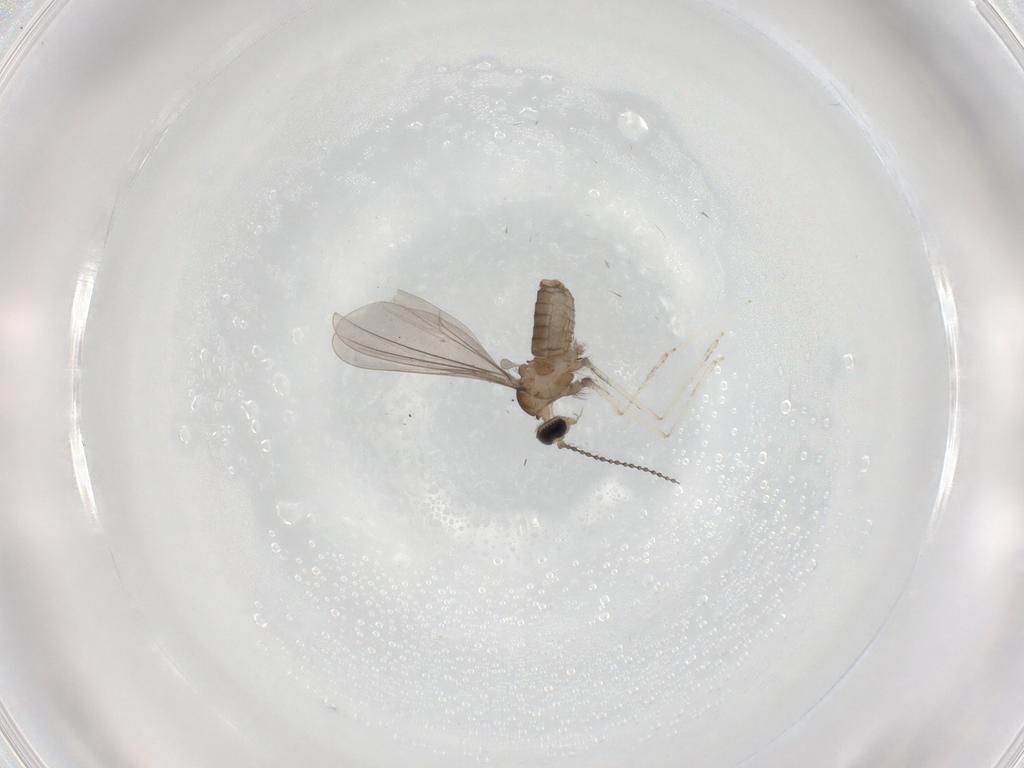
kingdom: Animalia
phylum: Arthropoda
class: Insecta
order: Diptera
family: Cecidomyiidae
